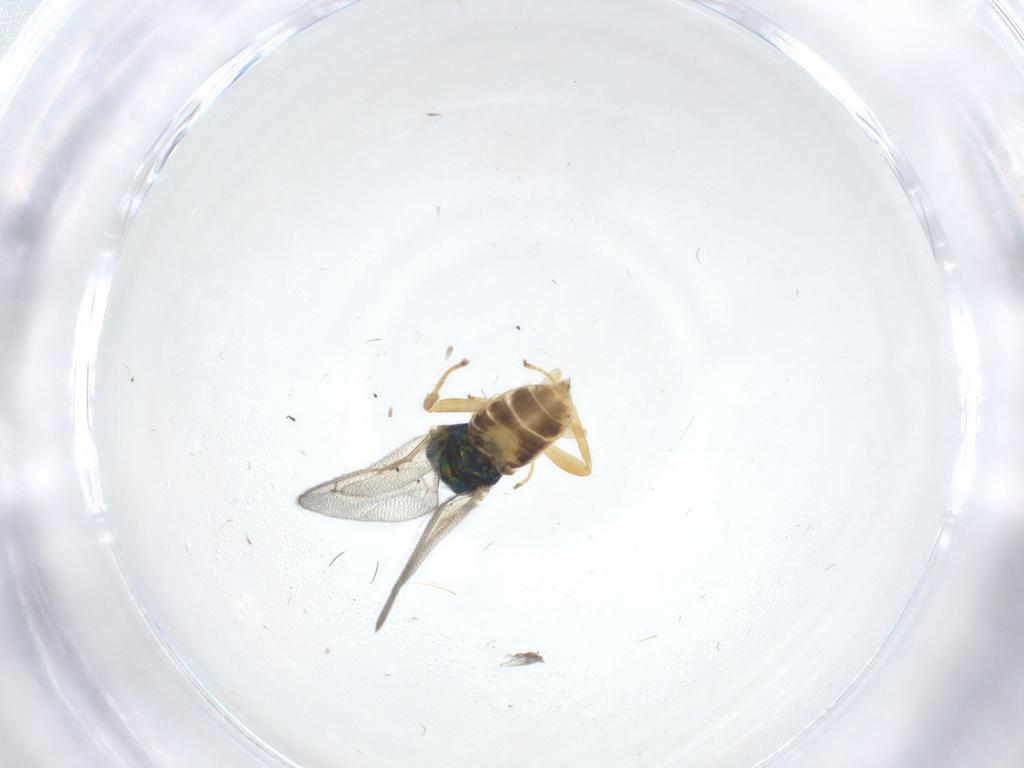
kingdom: Animalia
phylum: Arthropoda
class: Insecta
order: Hymenoptera
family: Pteromalidae
